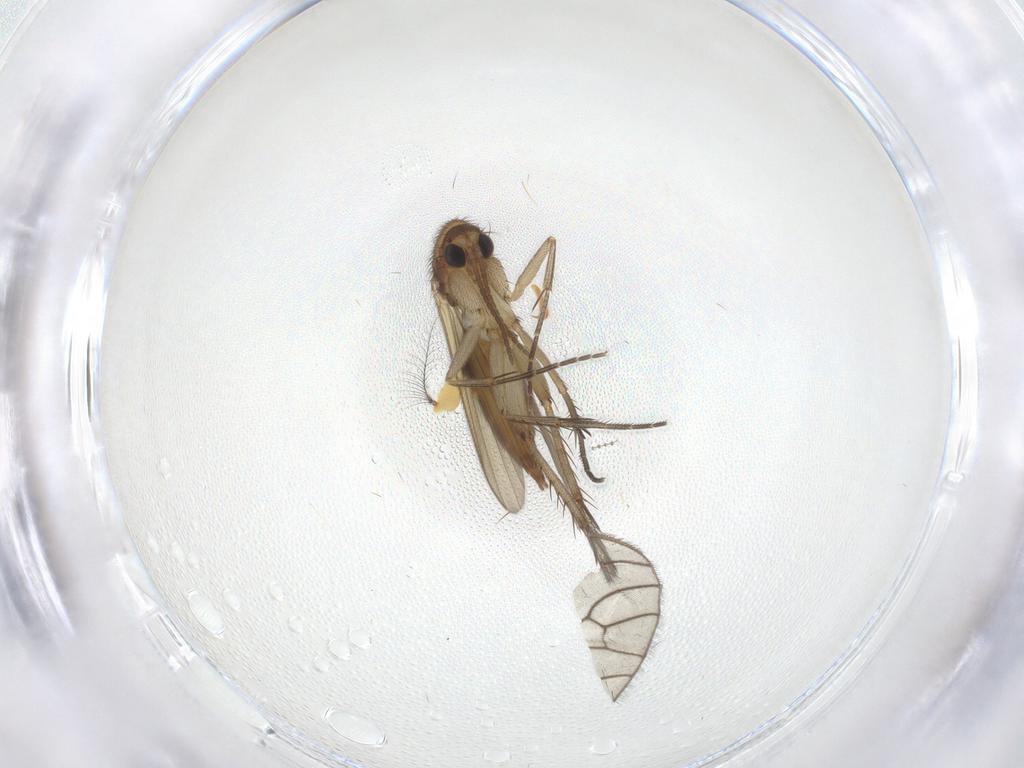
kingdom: Animalia
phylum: Arthropoda
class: Insecta
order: Diptera
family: Mycetophilidae
